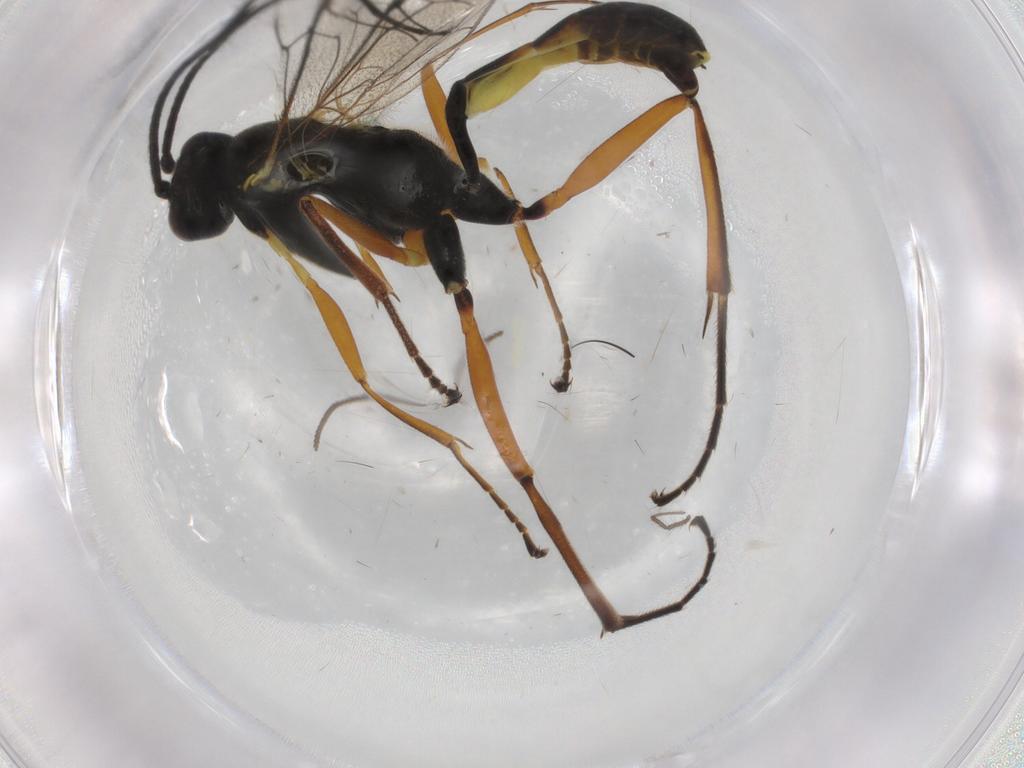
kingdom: Animalia
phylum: Arthropoda
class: Insecta
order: Hymenoptera
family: Ichneumonidae
